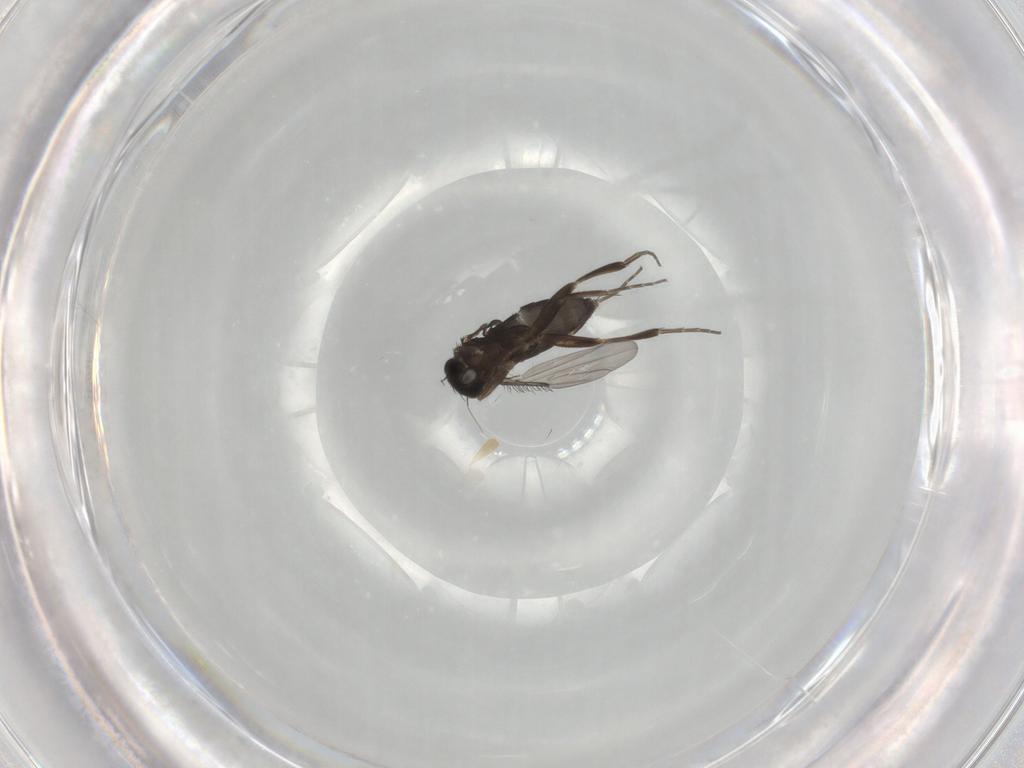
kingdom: Animalia
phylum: Arthropoda
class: Insecta
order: Diptera
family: Phoridae
